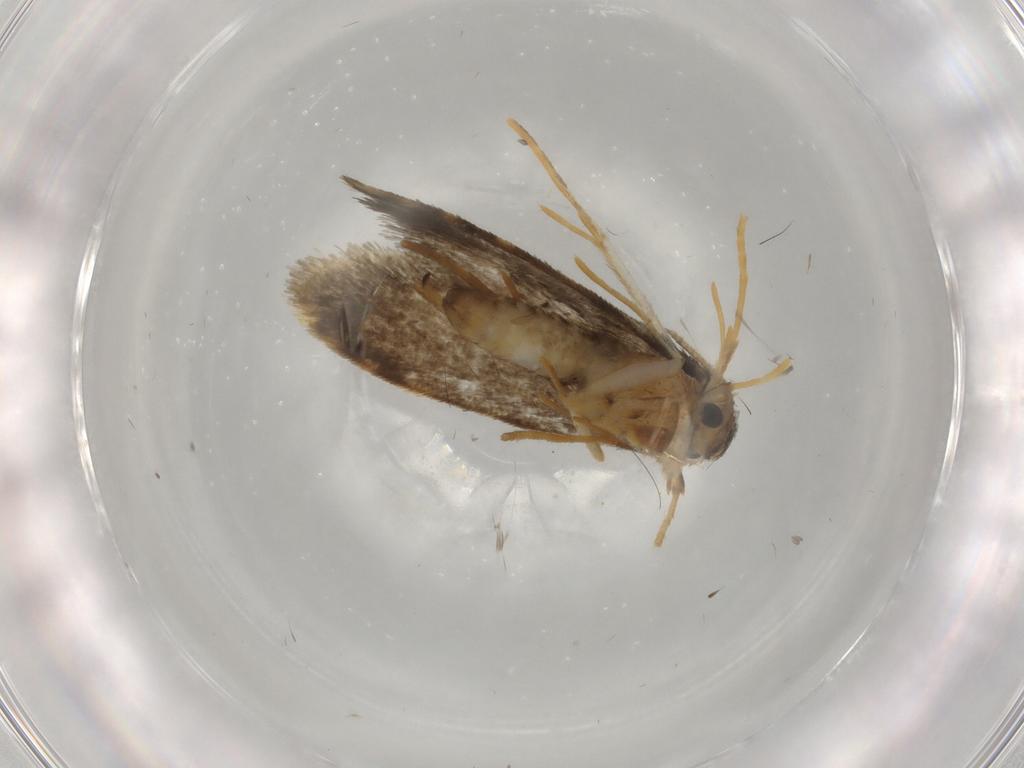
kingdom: Animalia
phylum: Arthropoda
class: Insecta
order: Lepidoptera
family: Psychidae
